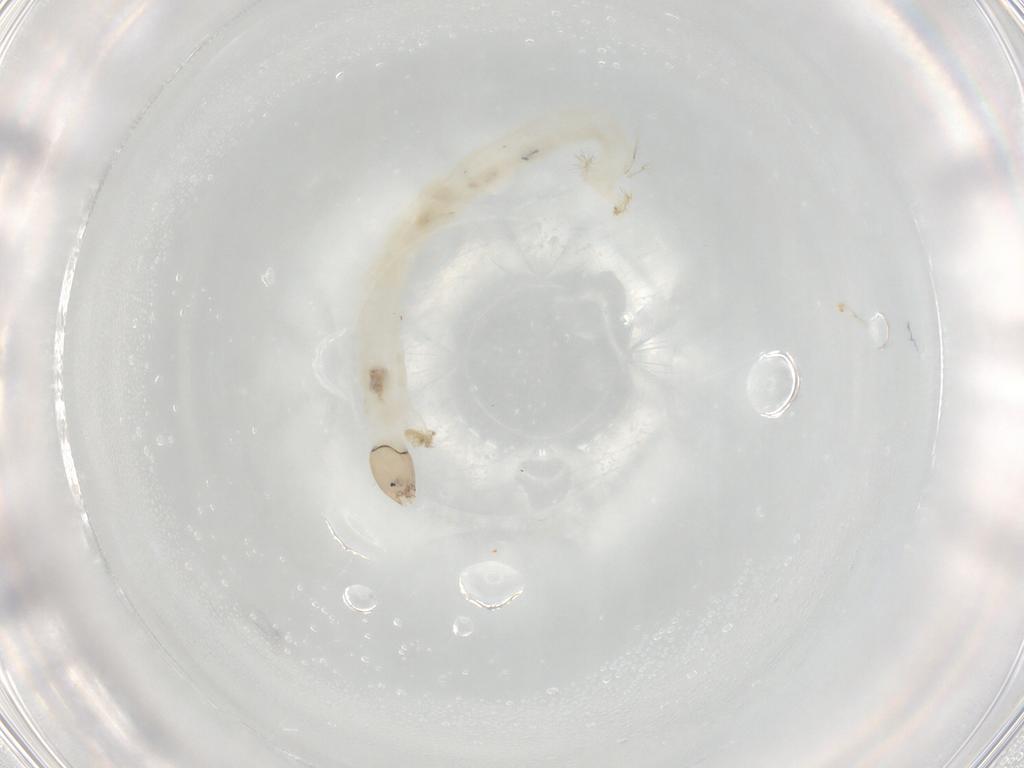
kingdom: Animalia
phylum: Arthropoda
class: Insecta
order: Diptera
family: Chironomidae
